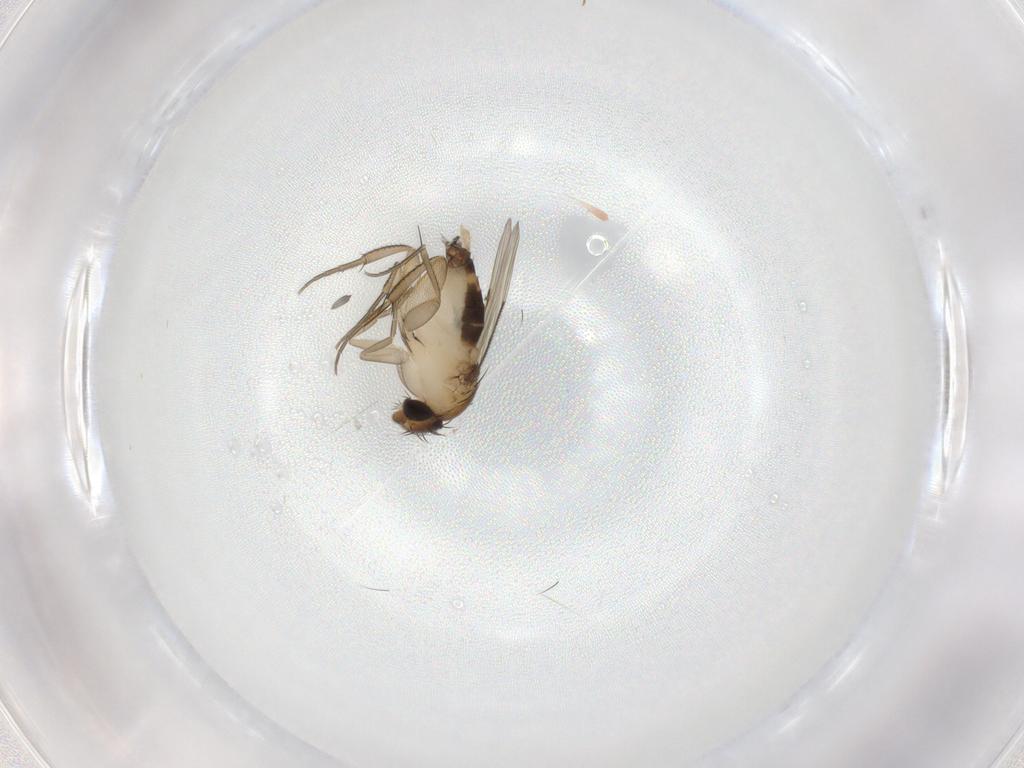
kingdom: Animalia
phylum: Arthropoda
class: Insecta
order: Diptera
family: Phoridae
